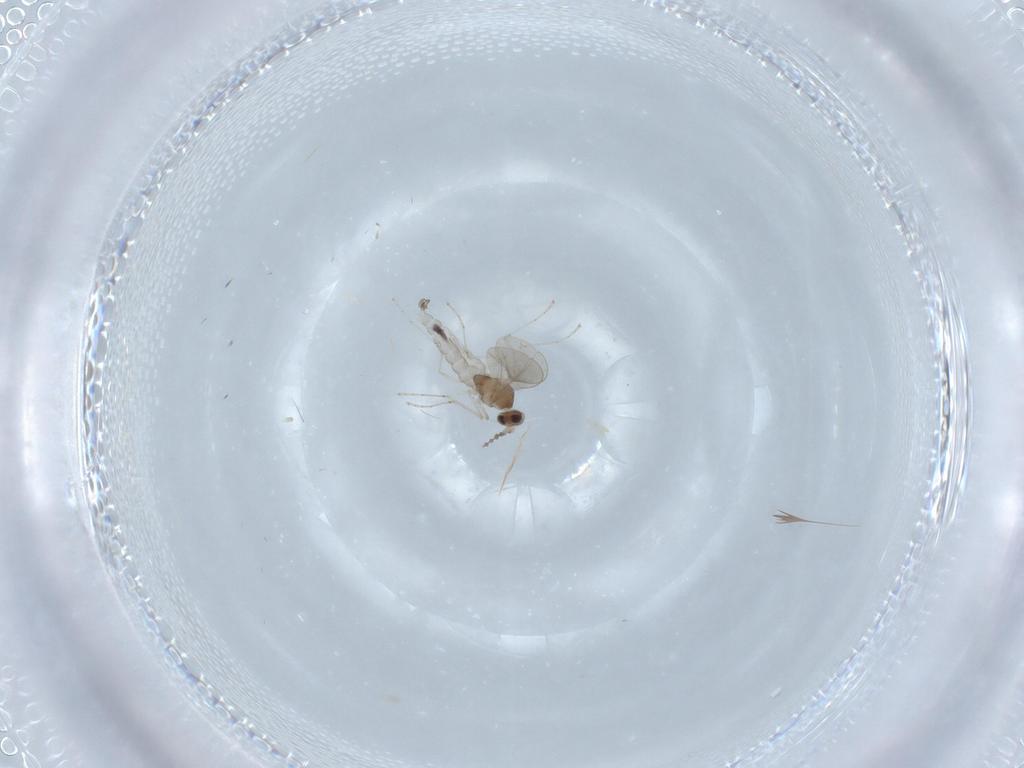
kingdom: Animalia
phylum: Arthropoda
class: Insecta
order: Diptera
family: Cecidomyiidae
